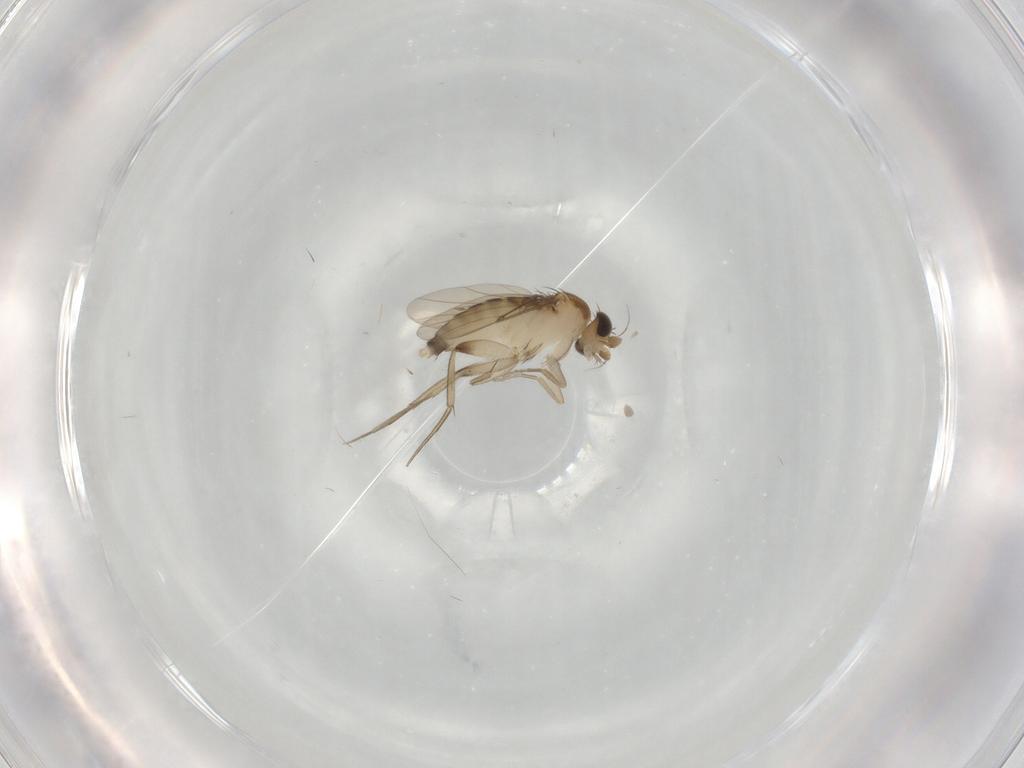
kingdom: Animalia
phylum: Arthropoda
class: Insecta
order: Diptera
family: Phoridae
